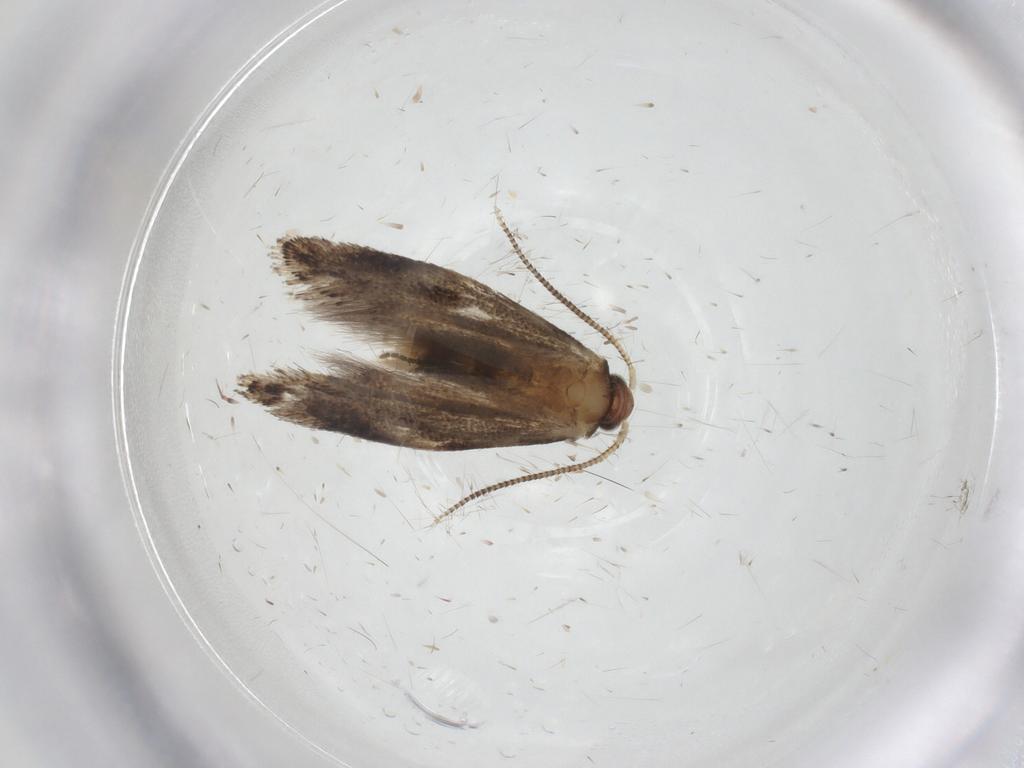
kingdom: Animalia
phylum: Arthropoda
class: Insecta
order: Lepidoptera
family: Tineidae
